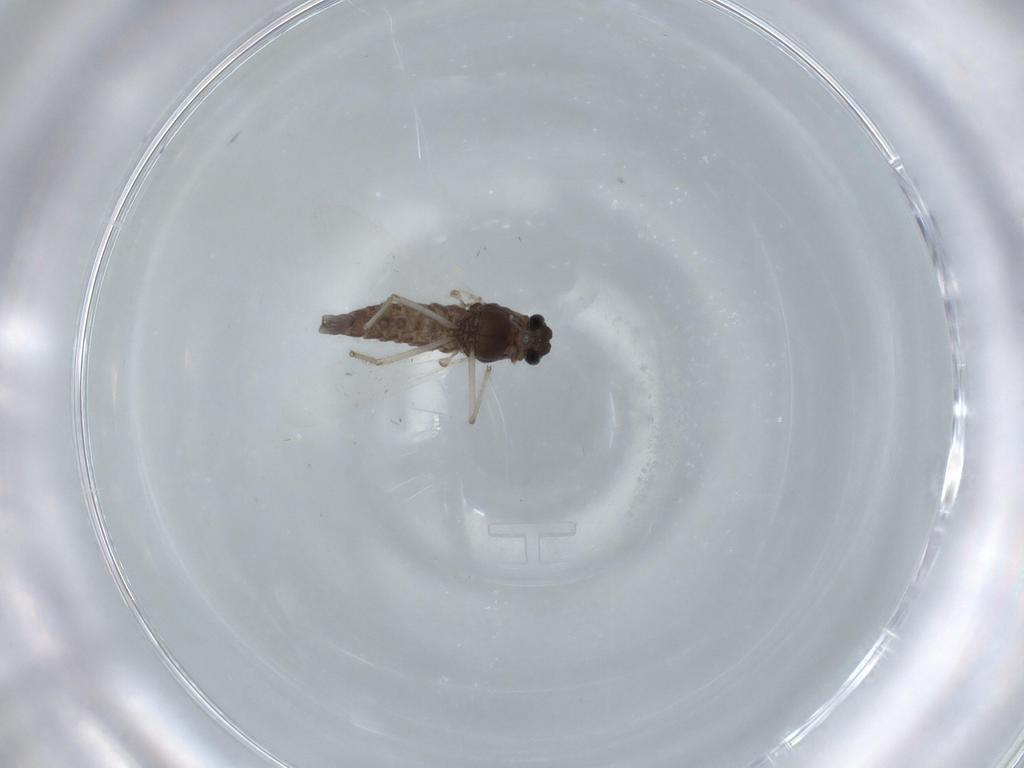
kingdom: Animalia
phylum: Arthropoda
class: Insecta
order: Diptera
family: Chironomidae
